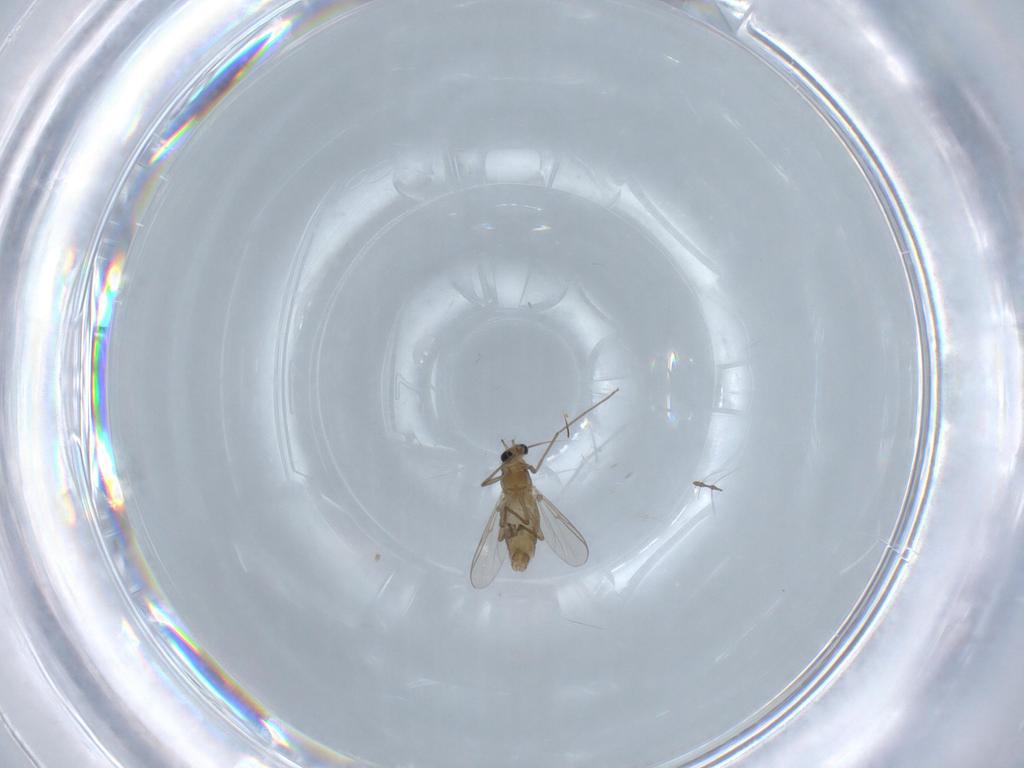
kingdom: Animalia
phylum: Arthropoda
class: Insecta
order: Diptera
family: Chironomidae
